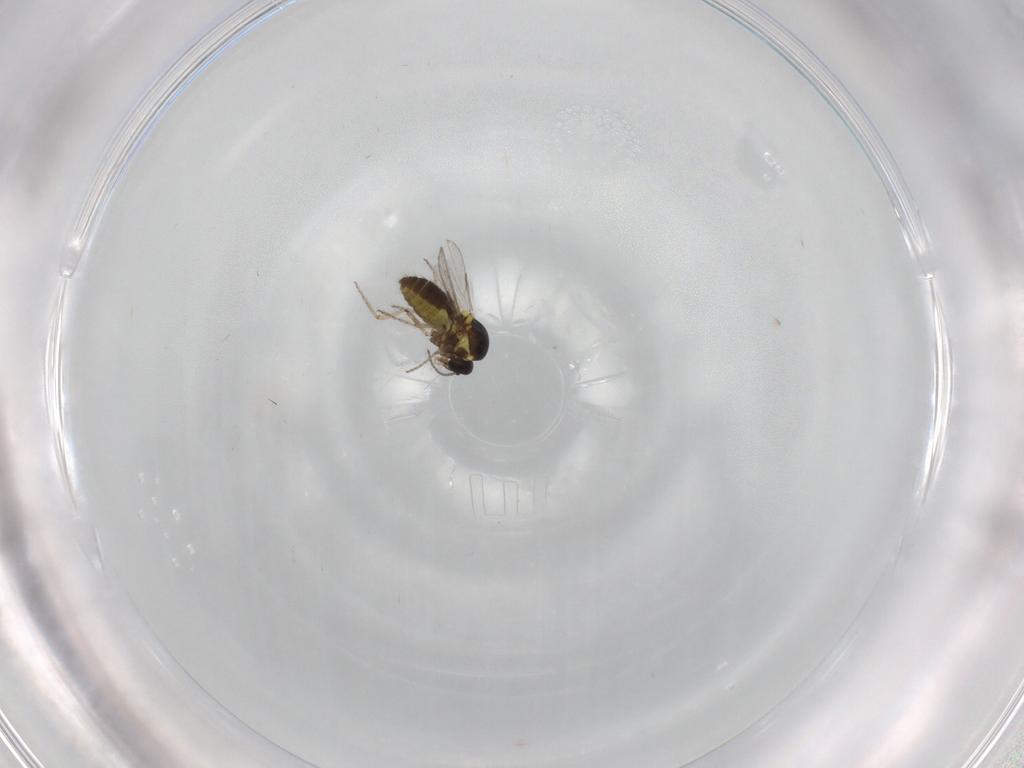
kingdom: Animalia
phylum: Arthropoda
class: Insecta
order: Diptera
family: Ceratopogonidae
